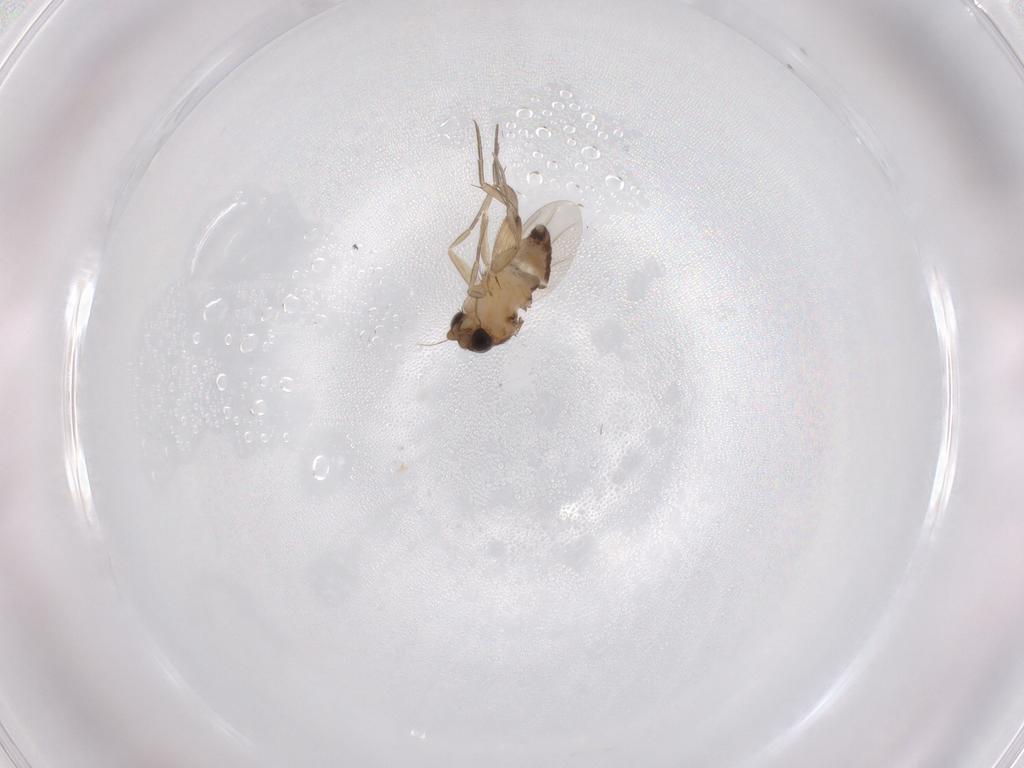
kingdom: Animalia
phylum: Arthropoda
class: Insecta
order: Diptera
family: Phoridae
